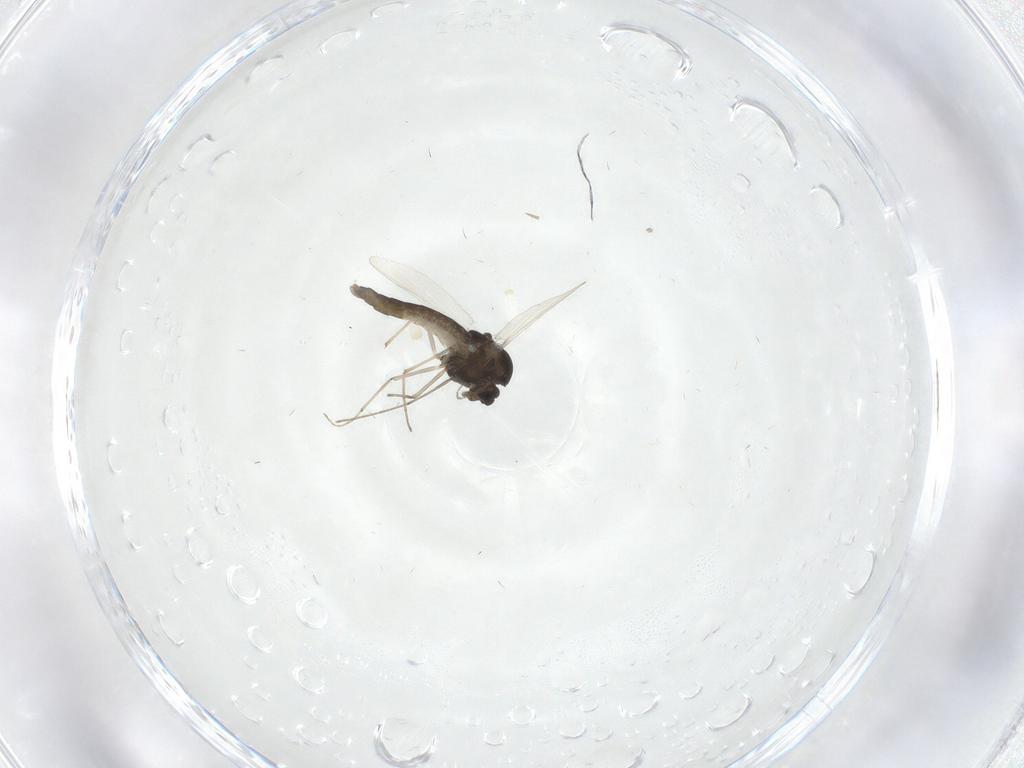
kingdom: Animalia
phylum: Arthropoda
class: Insecta
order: Diptera
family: Chironomidae
